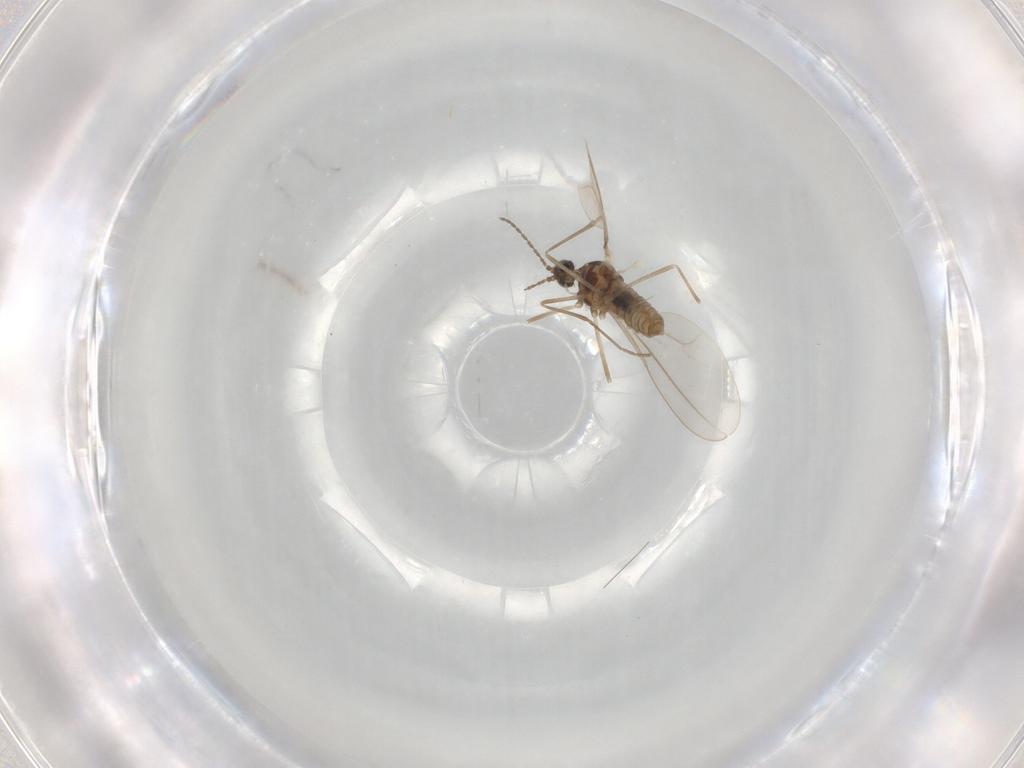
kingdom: Animalia
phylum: Arthropoda
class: Insecta
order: Diptera
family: Cecidomyiidae
